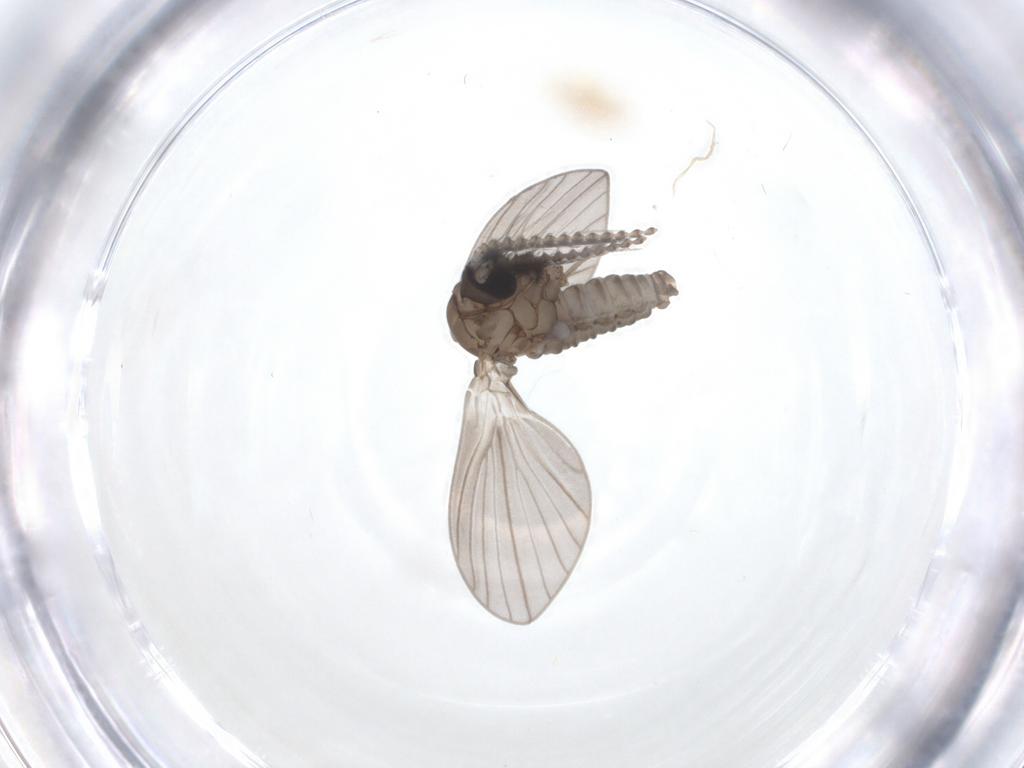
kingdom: Animalia
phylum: Arthropoda
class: Insecta
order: Diptera
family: Psychodidae
